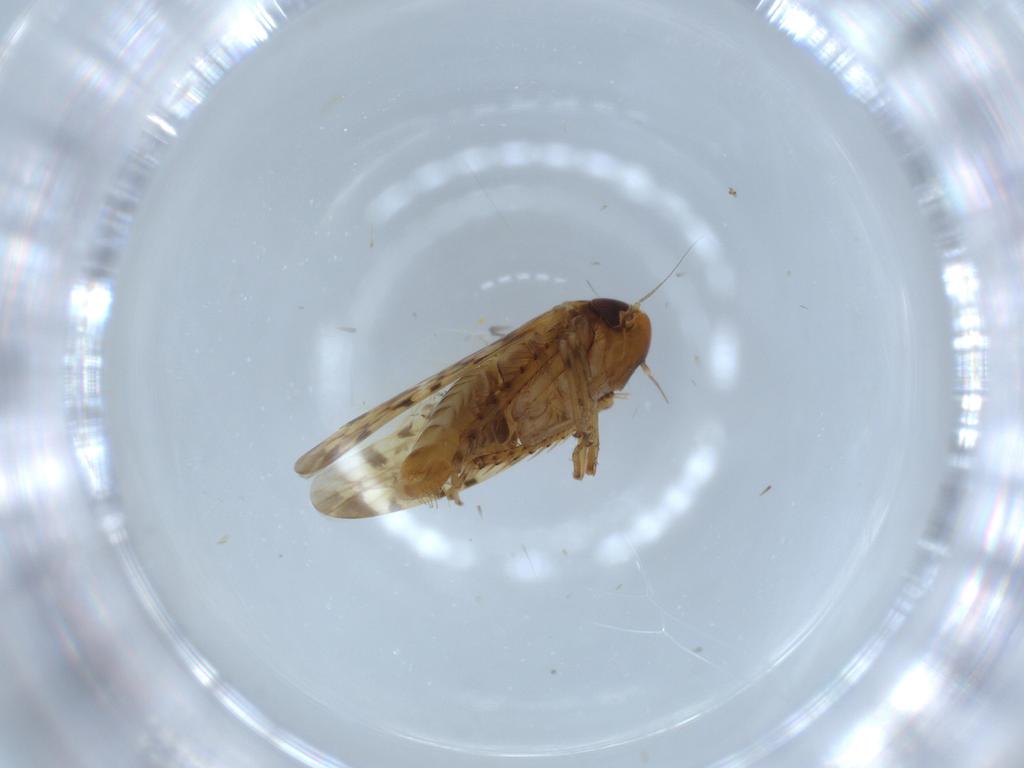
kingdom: Animalia
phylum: Arthropoda
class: Insecta
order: Hemiptera
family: Cicadellidae
